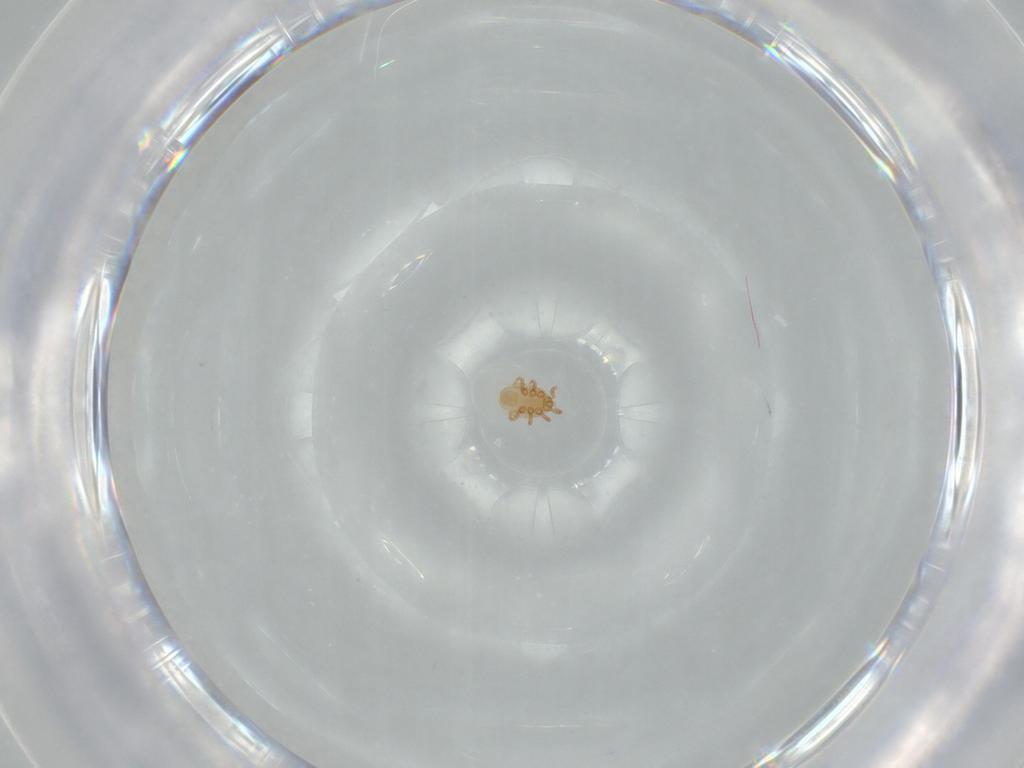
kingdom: Animalia
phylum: Arthropoda
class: Arachnida
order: Mesostigmata
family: Dinychidae
